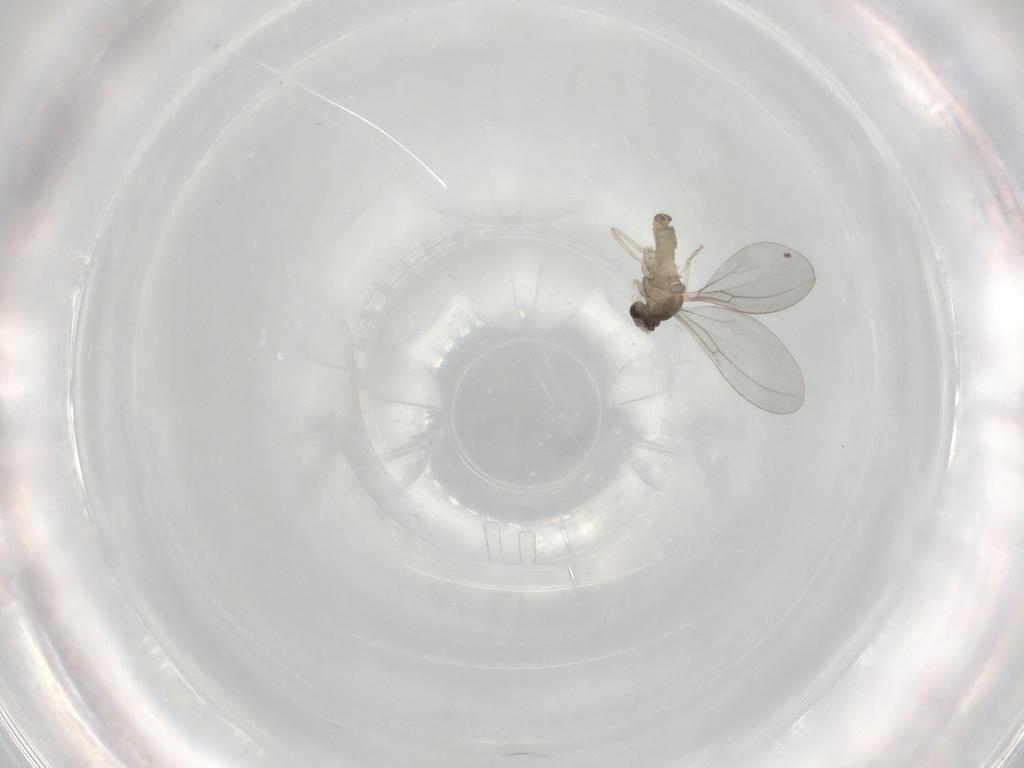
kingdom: Animalia
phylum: Arthropoda
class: Insecta
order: Diptera
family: Cecidomyiidae
